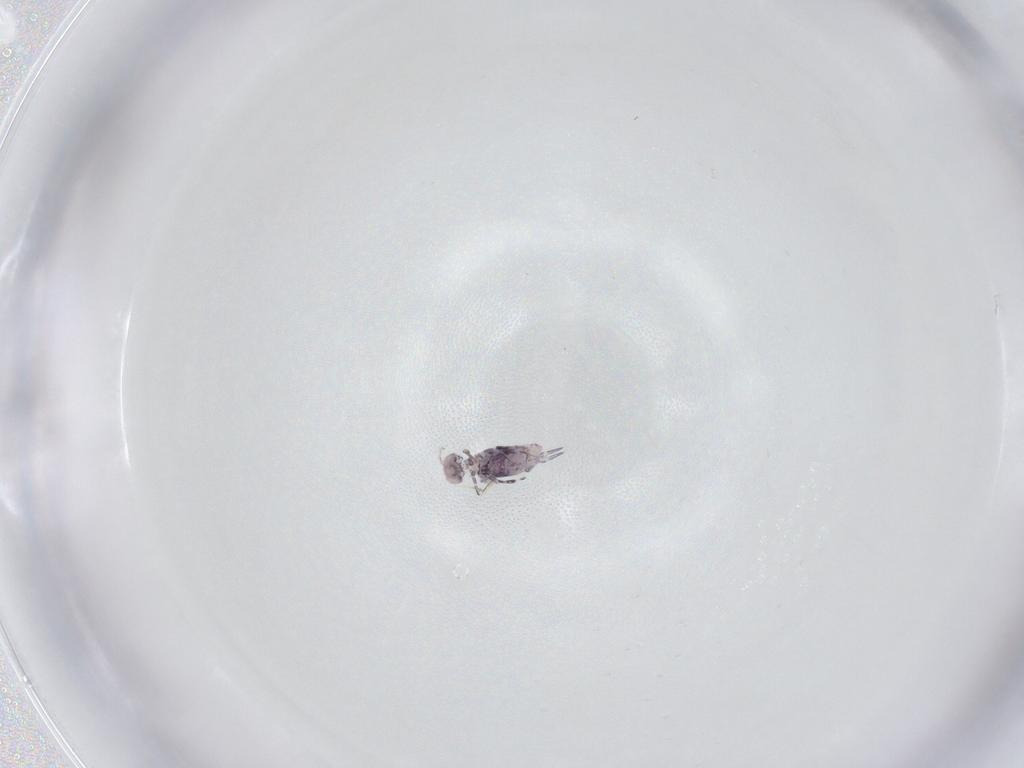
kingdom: Animalia
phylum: Arthropoda
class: Collembola
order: Symphypleona
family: Katiannidae
